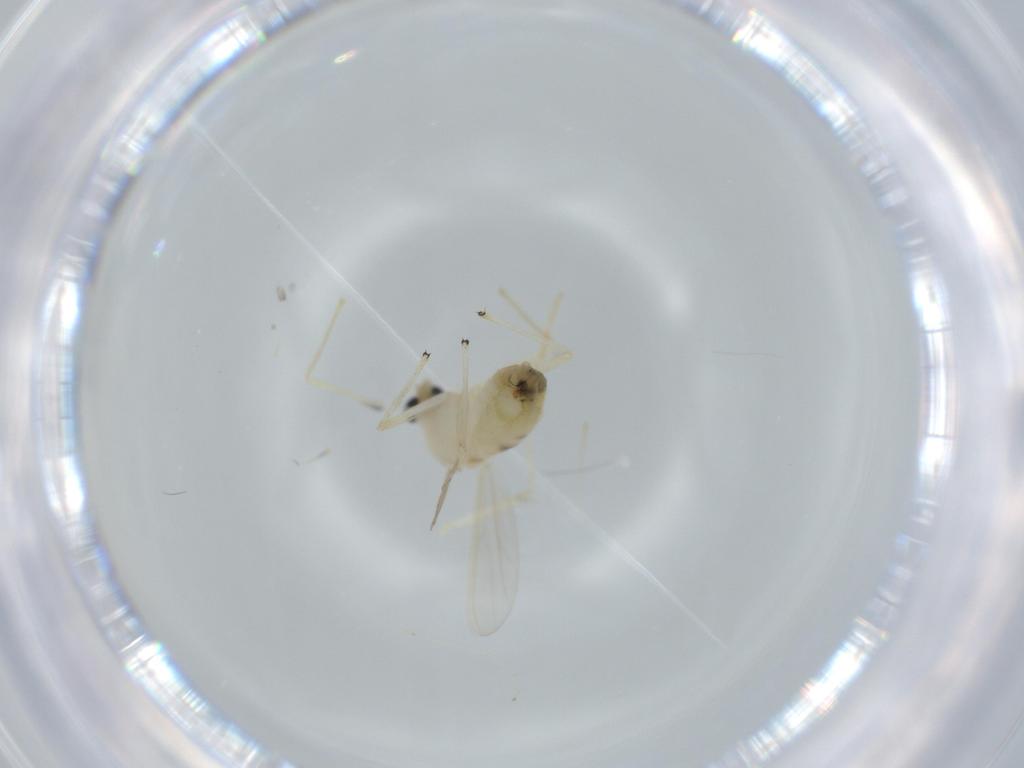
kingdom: Animalia
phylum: Arthropoda
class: Insecta
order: Diptera
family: Chironomidae
